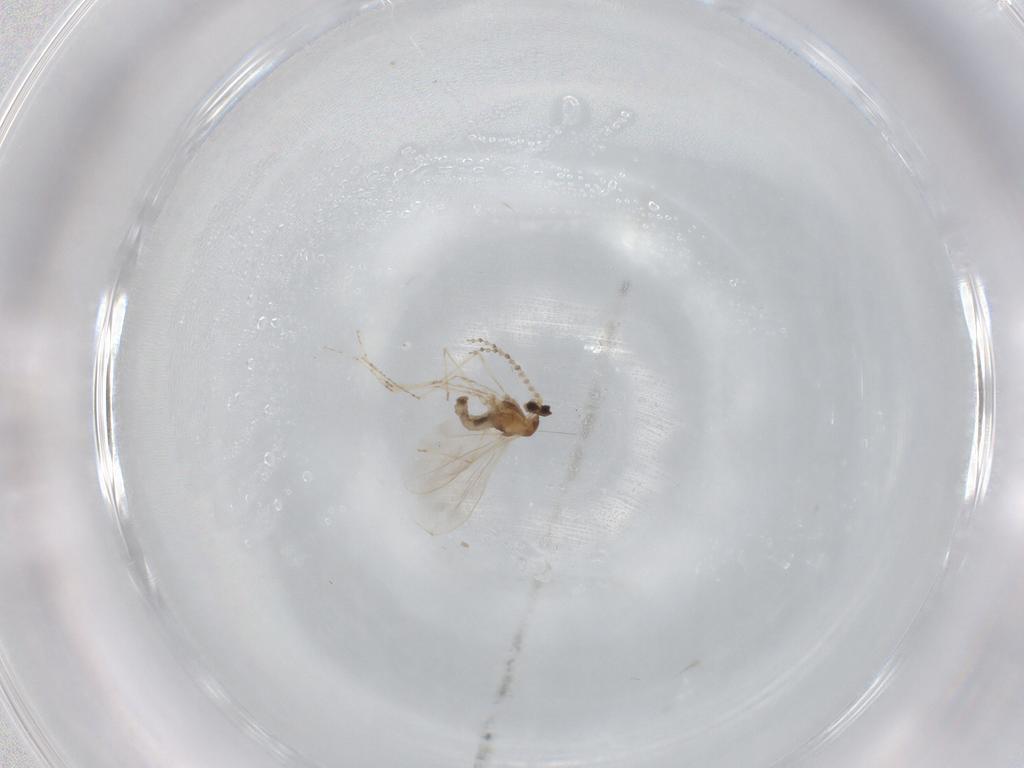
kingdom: Animalia
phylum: Arthropoda
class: Insecta
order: Diptera
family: Cecidomyiidae
